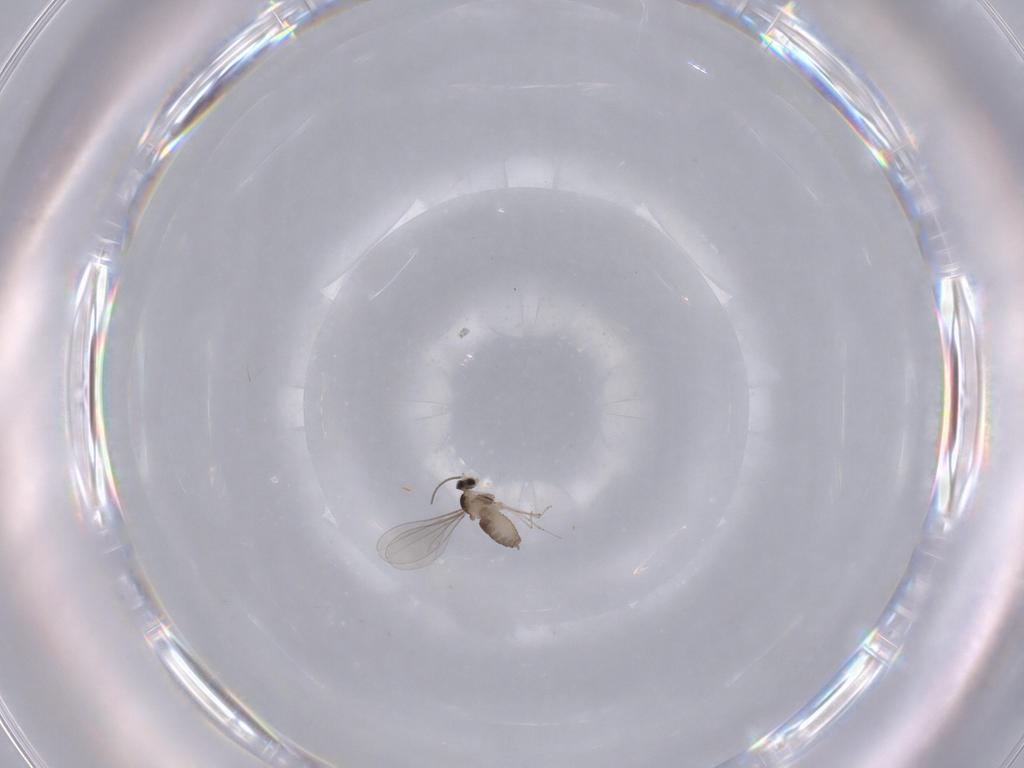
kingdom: Animalia
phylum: Arthropoda
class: Insecta
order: Diptera
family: Cecidomyiidae
